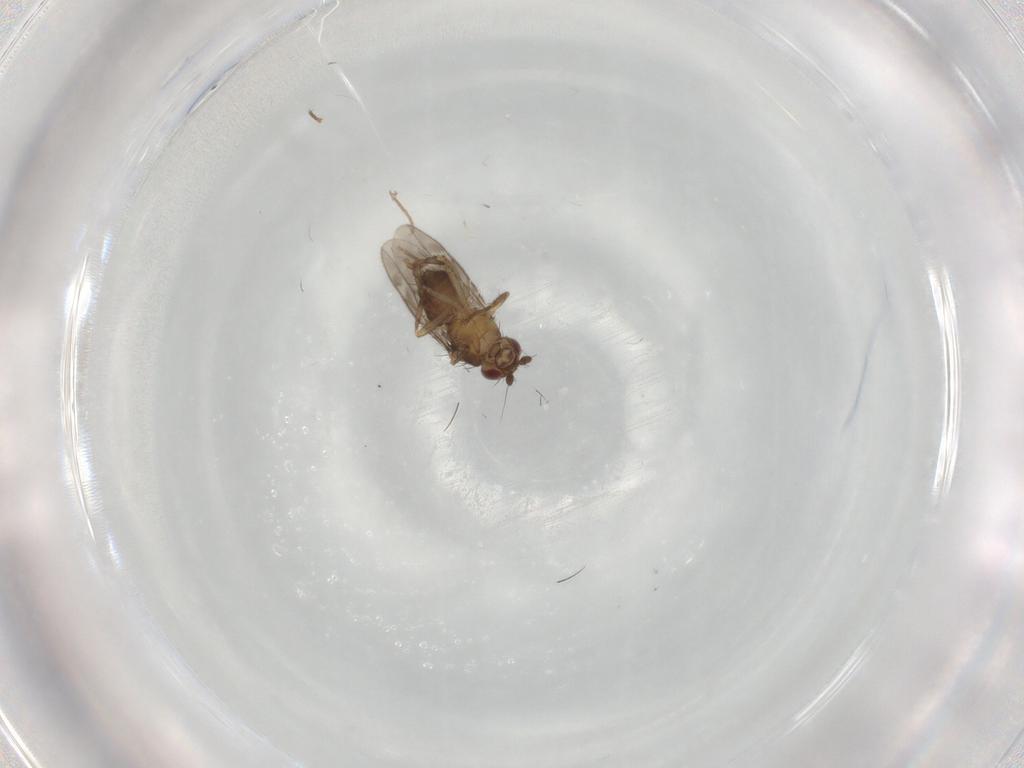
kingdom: Animalia
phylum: Arthropoda
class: Insecta
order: Diptera
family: Sphaeroceridae
